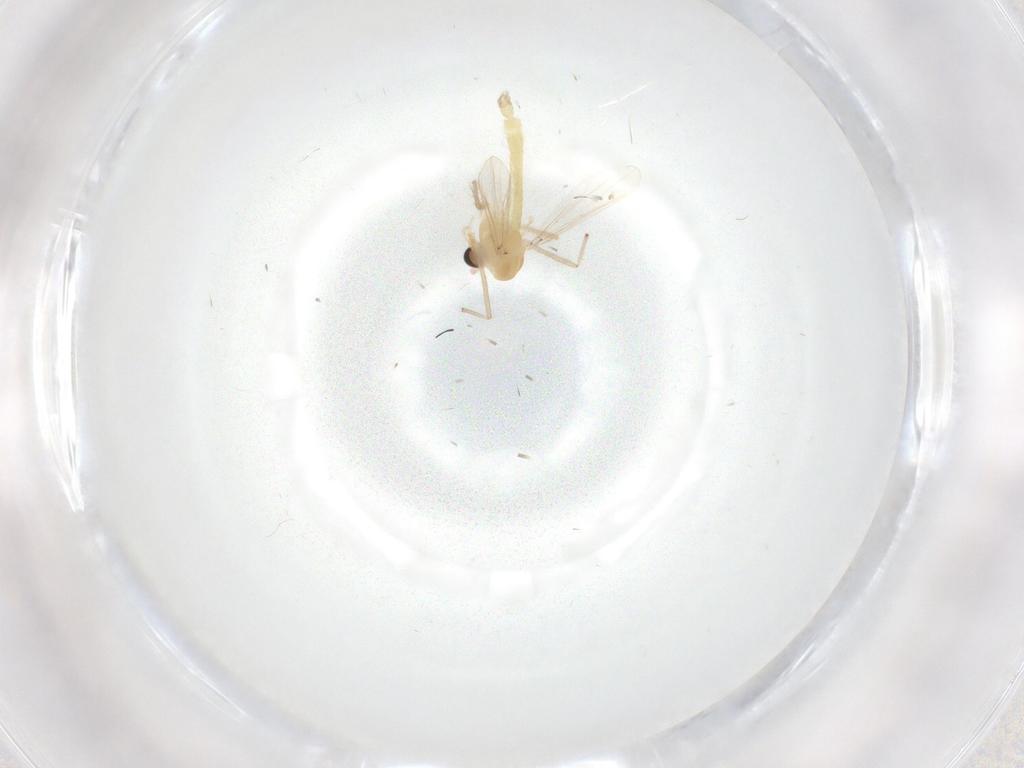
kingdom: Animalia
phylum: Arthropoda
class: Insecta
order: Diptera
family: Chironomidae
